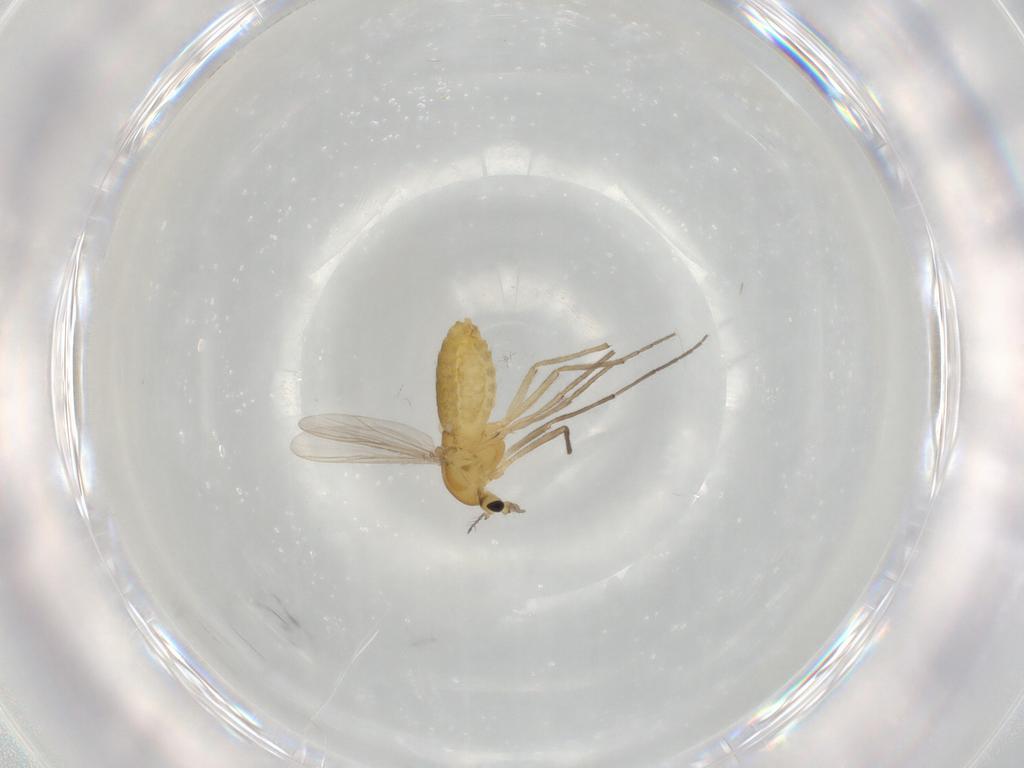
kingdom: Animalia
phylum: Arthropoda
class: Insecta
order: Diptera
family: Chironomidae
